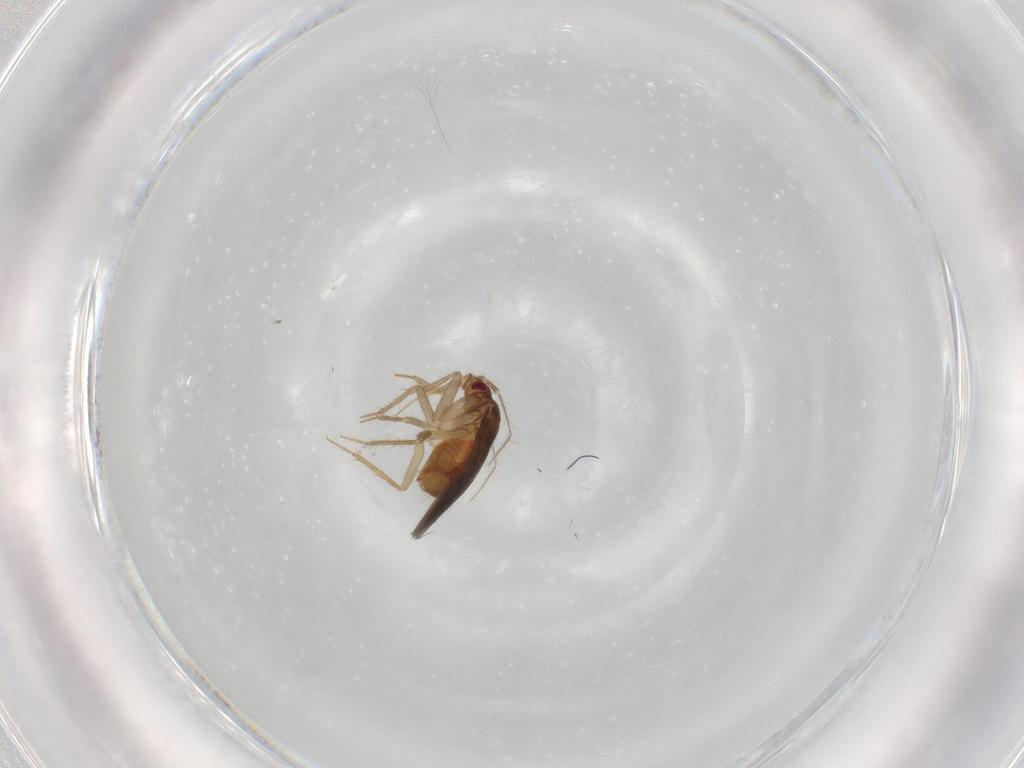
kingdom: Animalia
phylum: Arthropoda
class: Insecta
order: Hemiptera
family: Ceratocombidae
